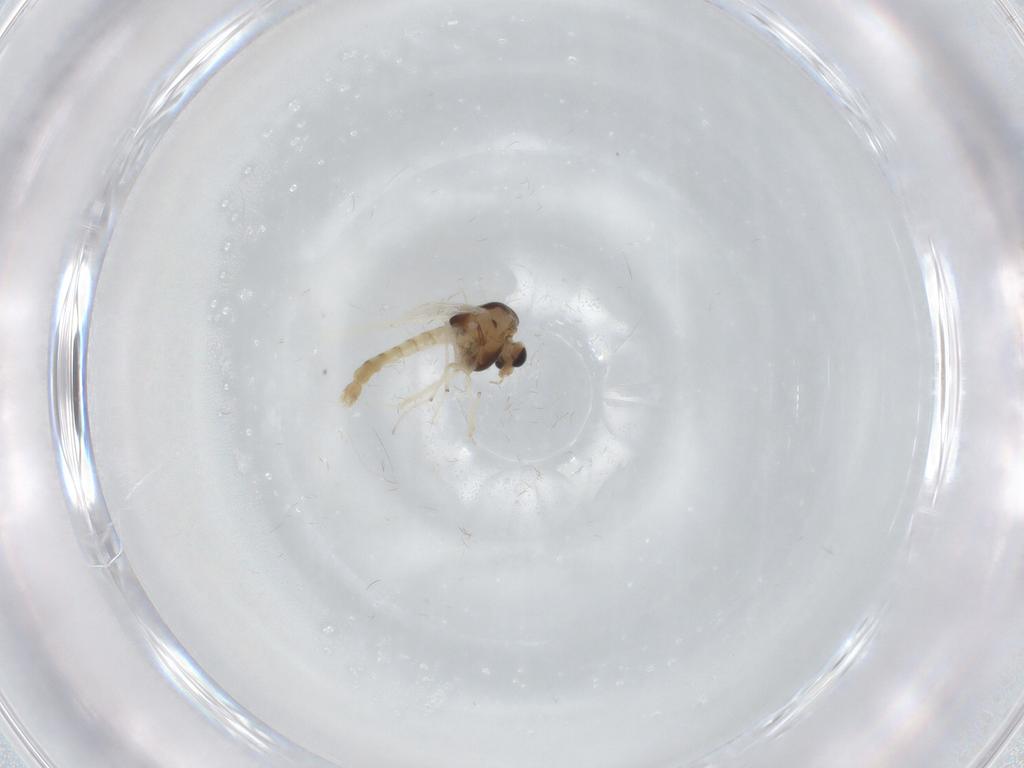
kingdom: Animalia
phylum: Arthropoda
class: Insecta
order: Diptera
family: Chironomidae
